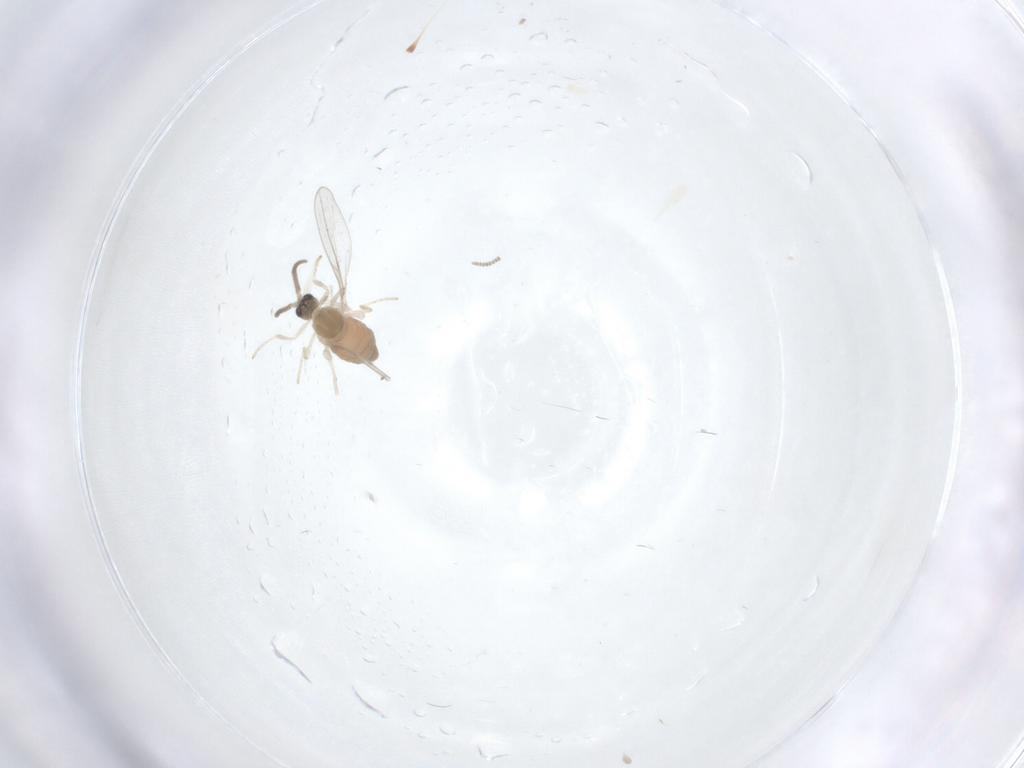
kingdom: Animalia
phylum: Arthropoda
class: Insecta
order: Diptera
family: Cecidomyiidae
